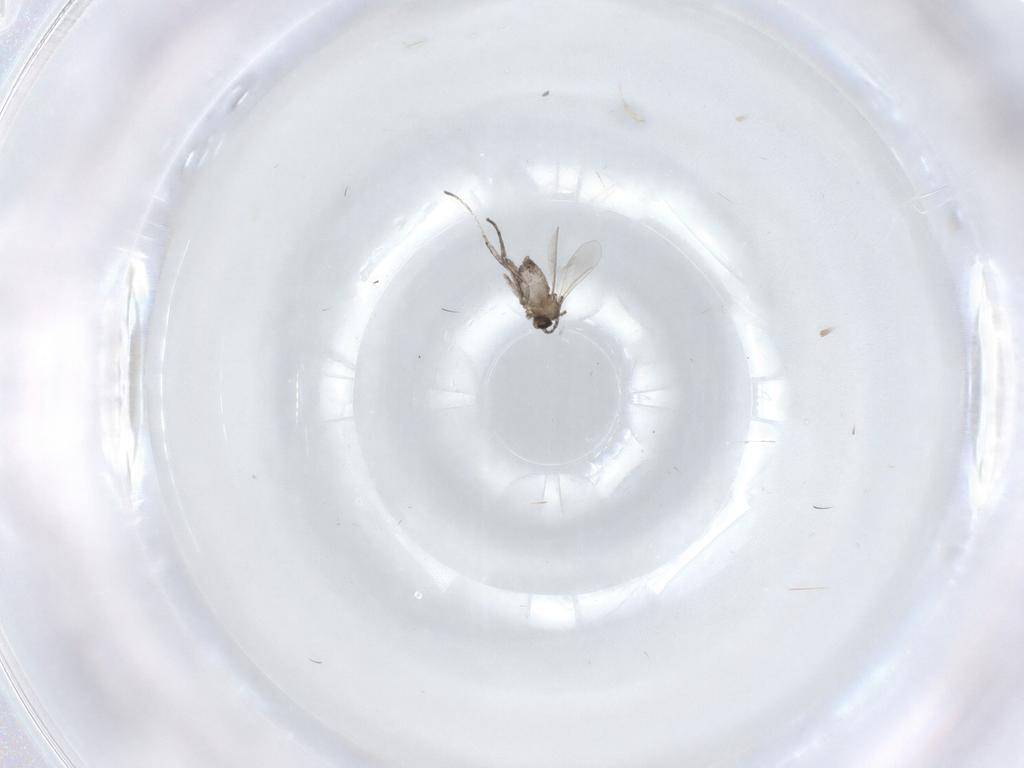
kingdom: Animalia
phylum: Arthropoda
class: Insecta
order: Diptera
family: Cecidomyiidae
